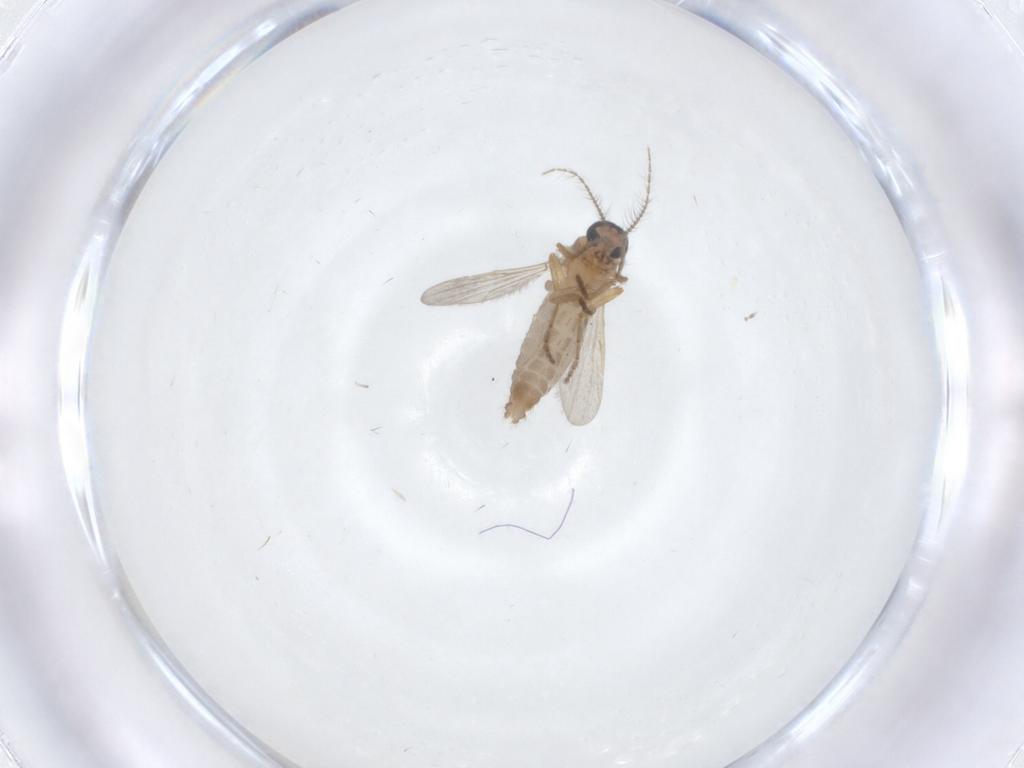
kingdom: Animalia
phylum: Arthropoda
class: Insecta
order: Diptera
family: Ceratopogonidae
